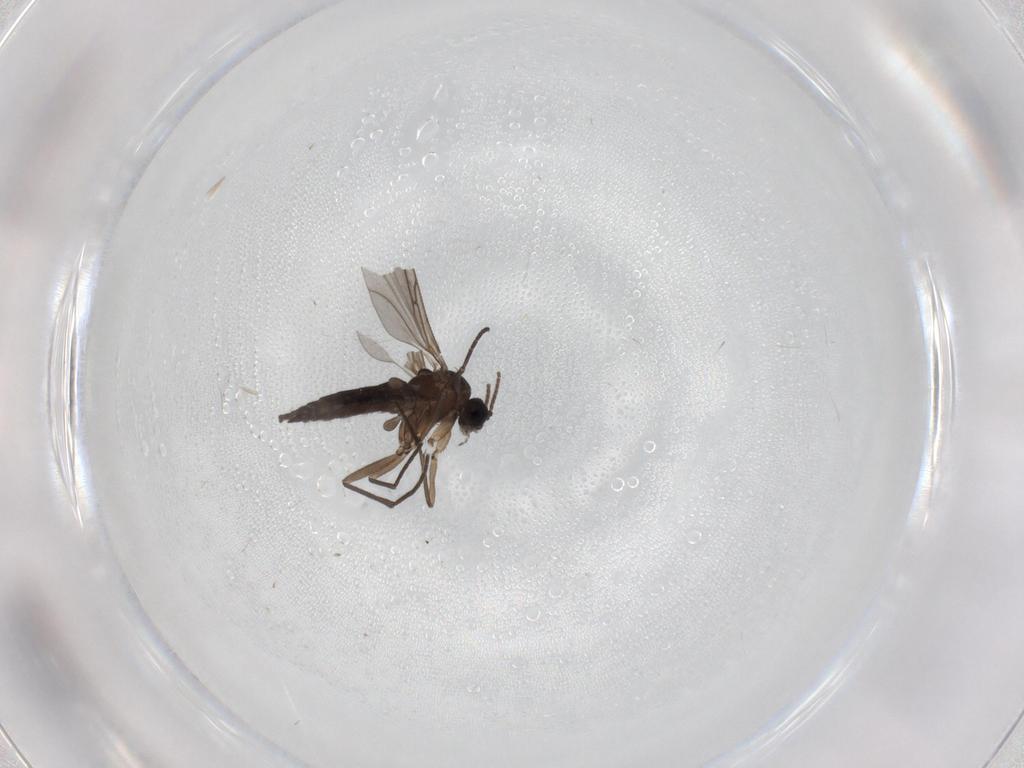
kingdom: Animalia
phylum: Arthropoda
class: Insecta
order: Diptera
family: Sciaridae
